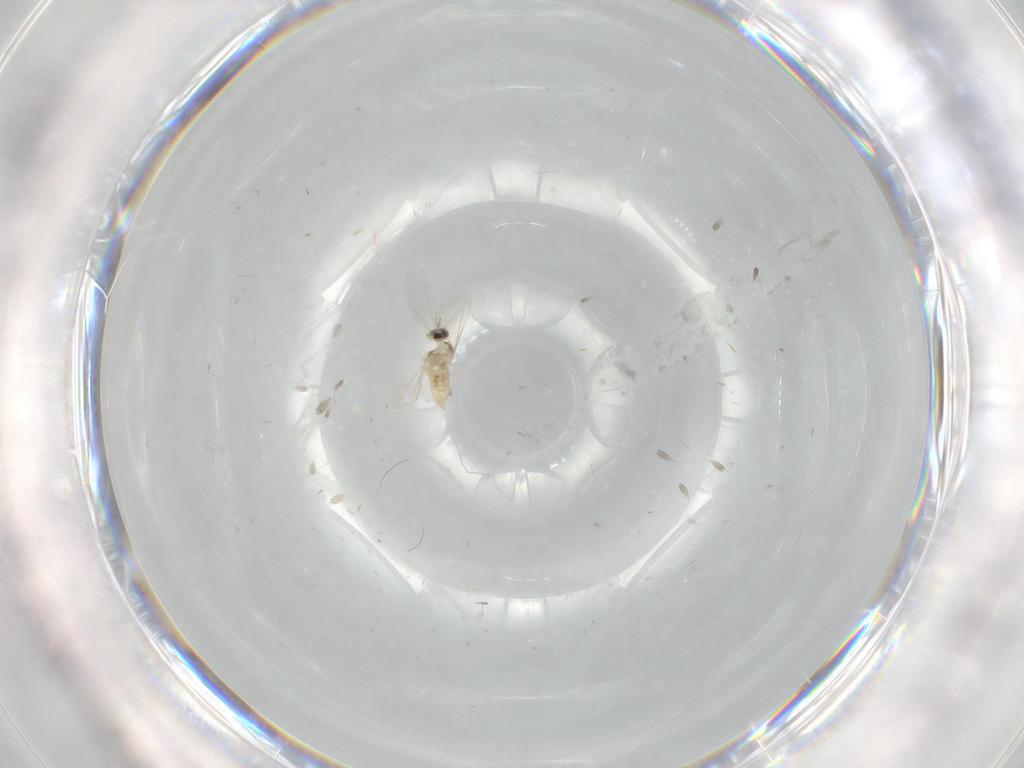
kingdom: Animalia
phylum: Arthropoda
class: Insecta
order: Diptera
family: Cecidomyiidae
